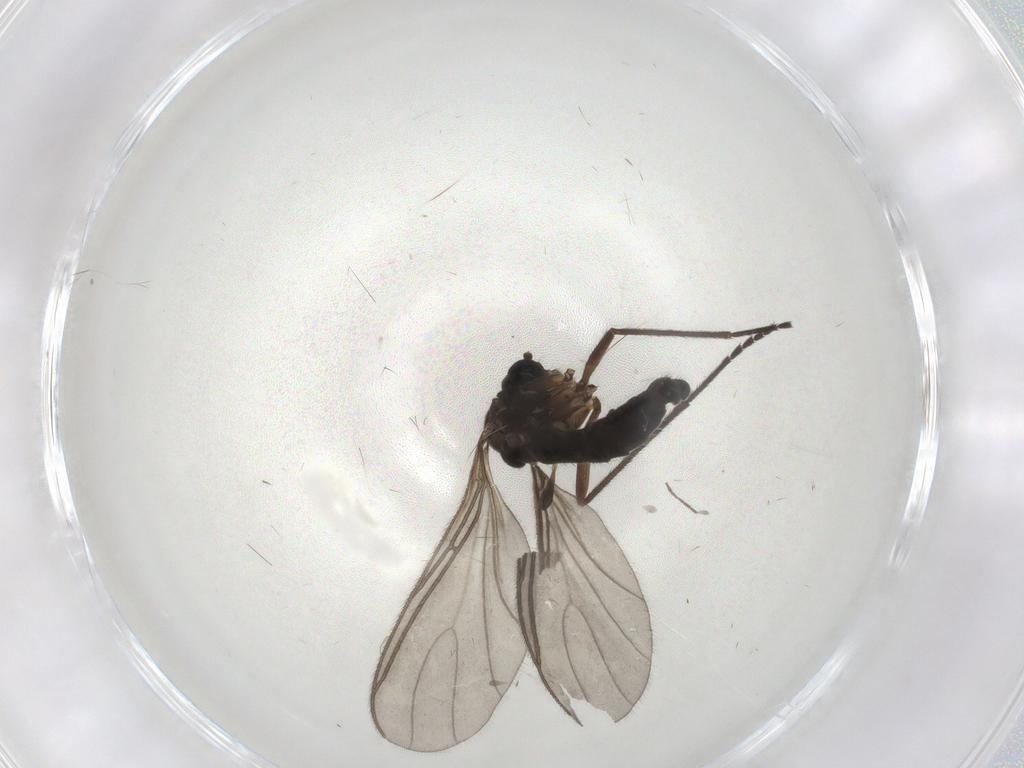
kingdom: Animalia
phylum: Arthropoda
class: Insecta
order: Diptera
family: Sciaridae
